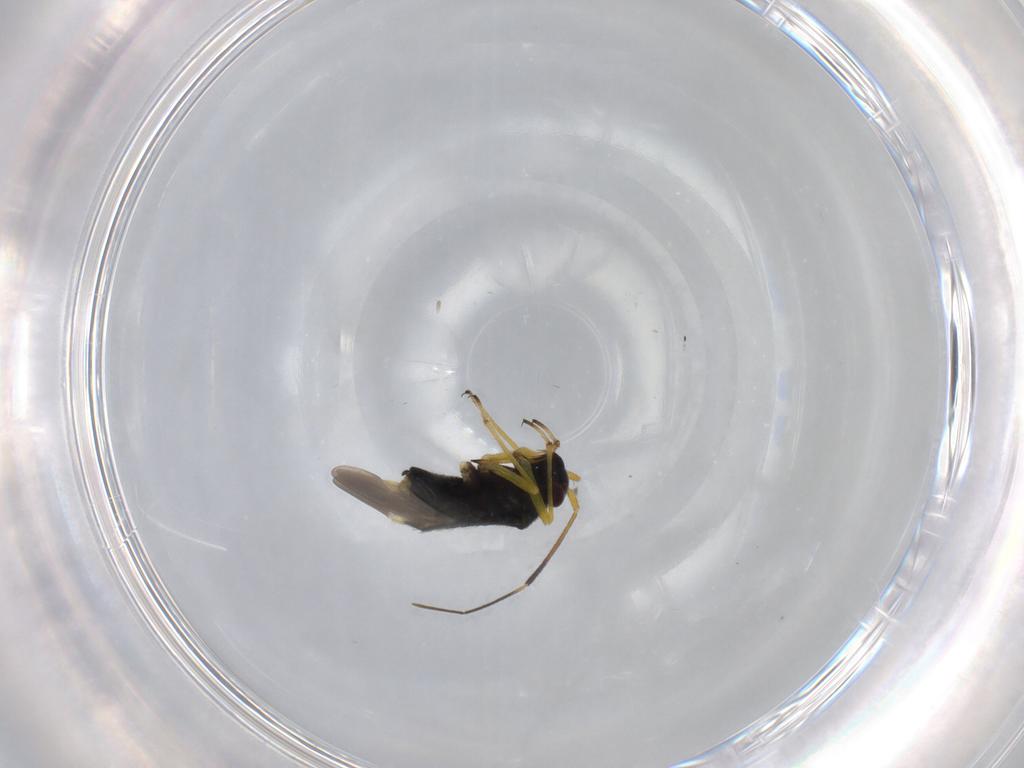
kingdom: Animalia
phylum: Arthropoda
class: Insecta
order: Hemiptera
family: Miridae
